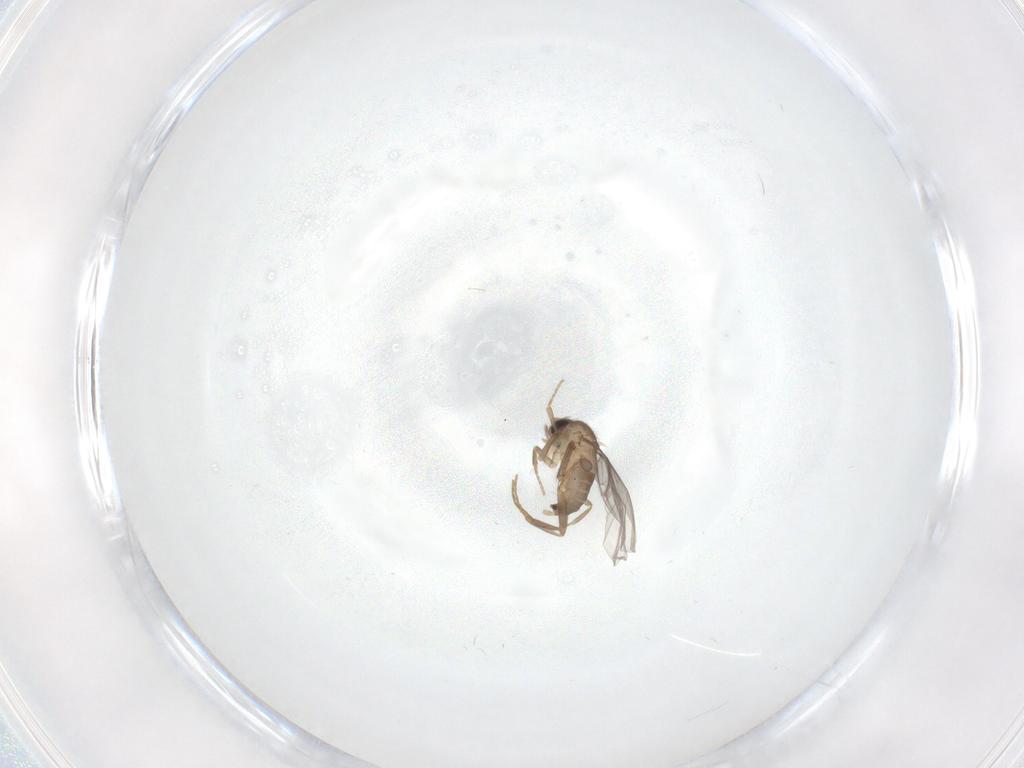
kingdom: Animalia
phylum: Arthropoda
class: Insecta
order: Diptera
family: Ceratopogonidae
